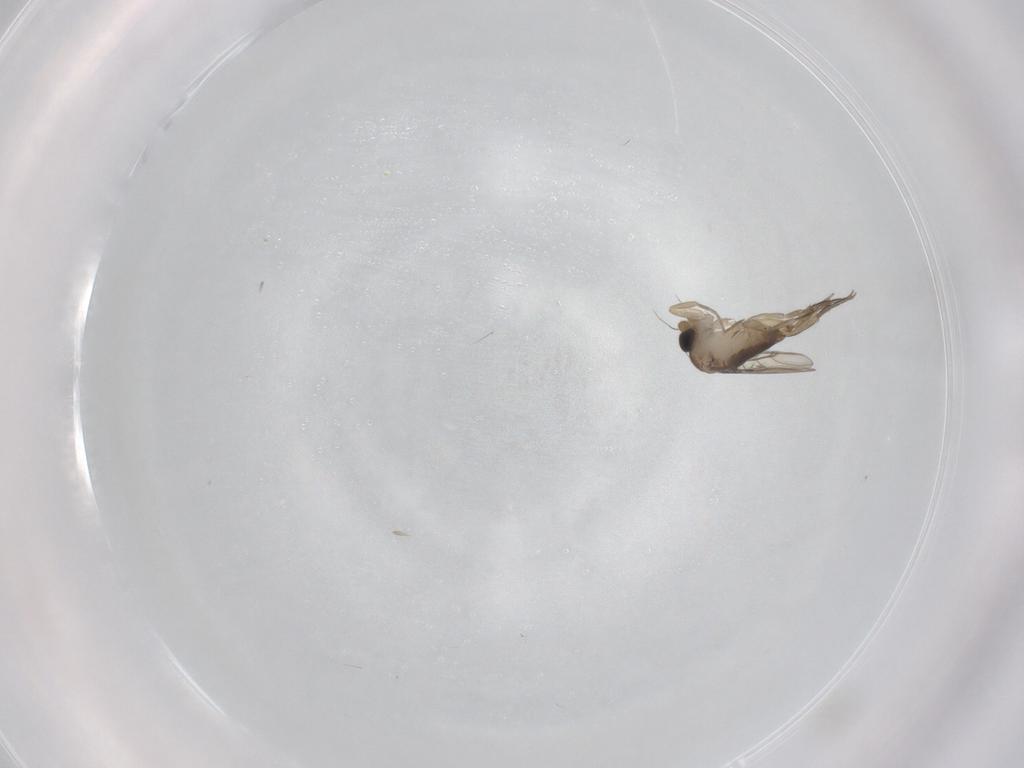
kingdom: Animalia
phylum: Arthropoda
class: Insecta
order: Diptera
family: Phoridae
